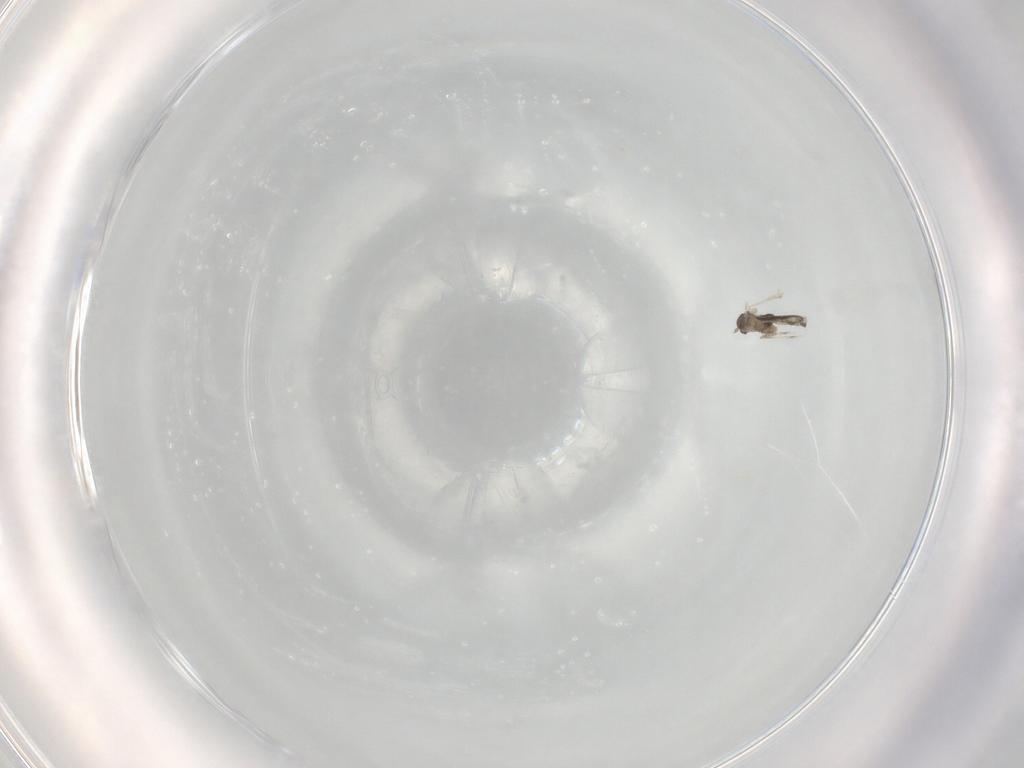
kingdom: Animalia
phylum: Arthropoda
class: Insecta
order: Diptera
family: Cecidomyiidae
